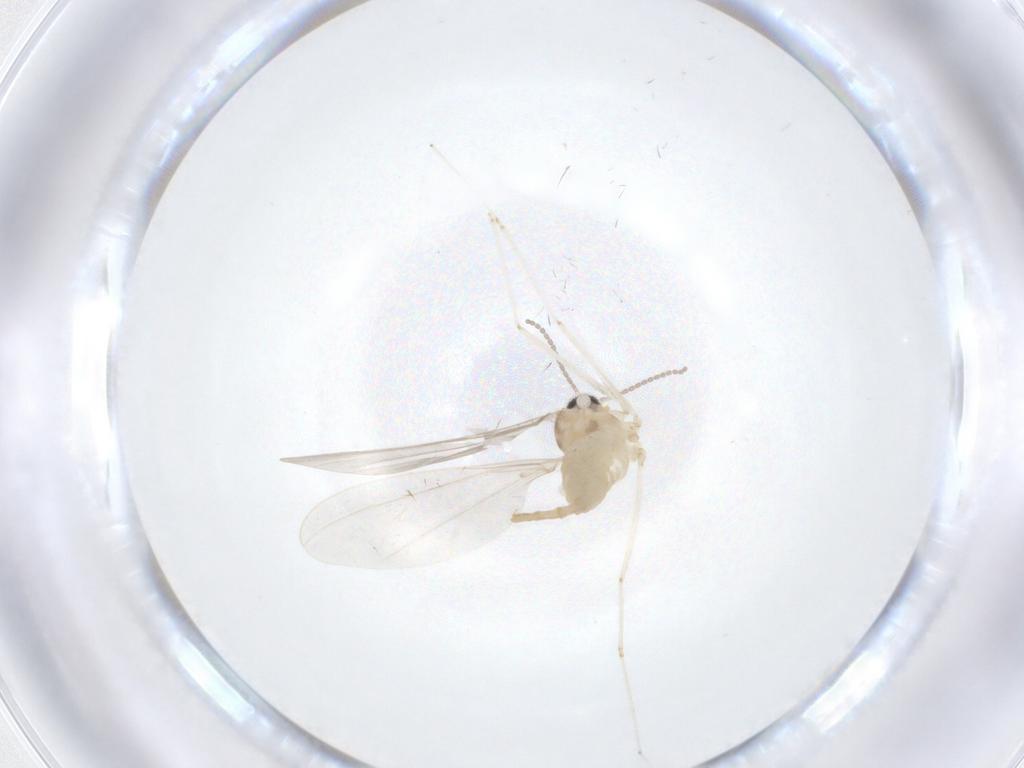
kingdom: Animalia
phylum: Arthropoda
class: Insecta
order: Diptera
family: Cecidomyiidae
